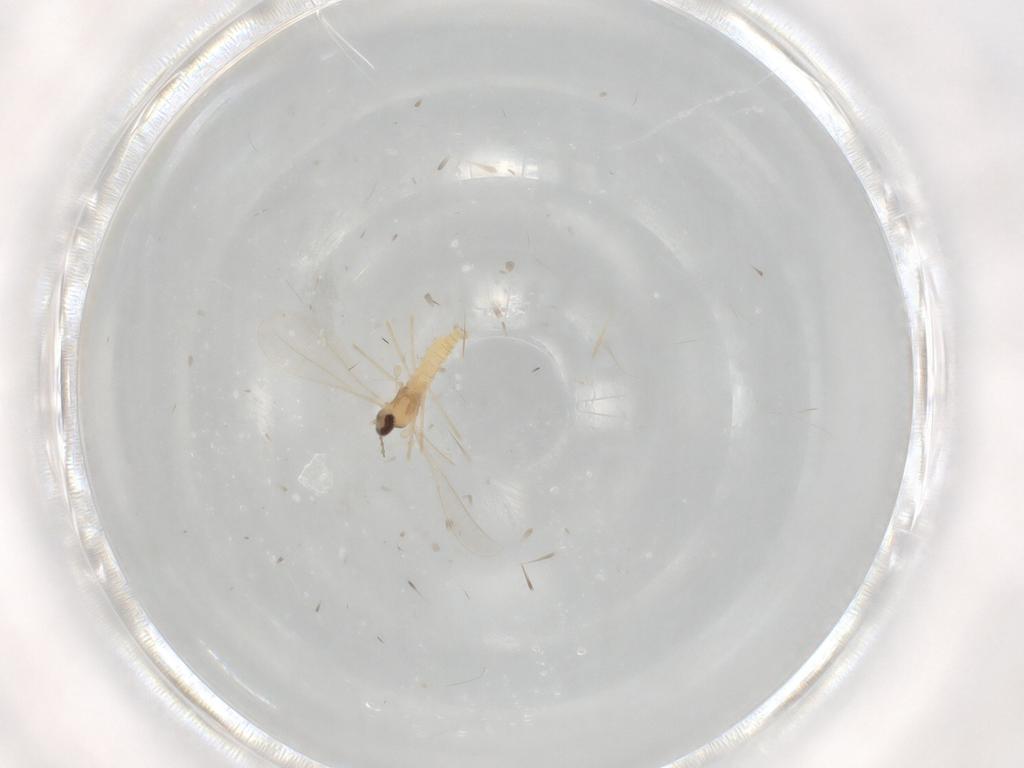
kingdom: Animalia
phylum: Arthropoda
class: Insecta
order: Diptera
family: Cecidomyiidae
